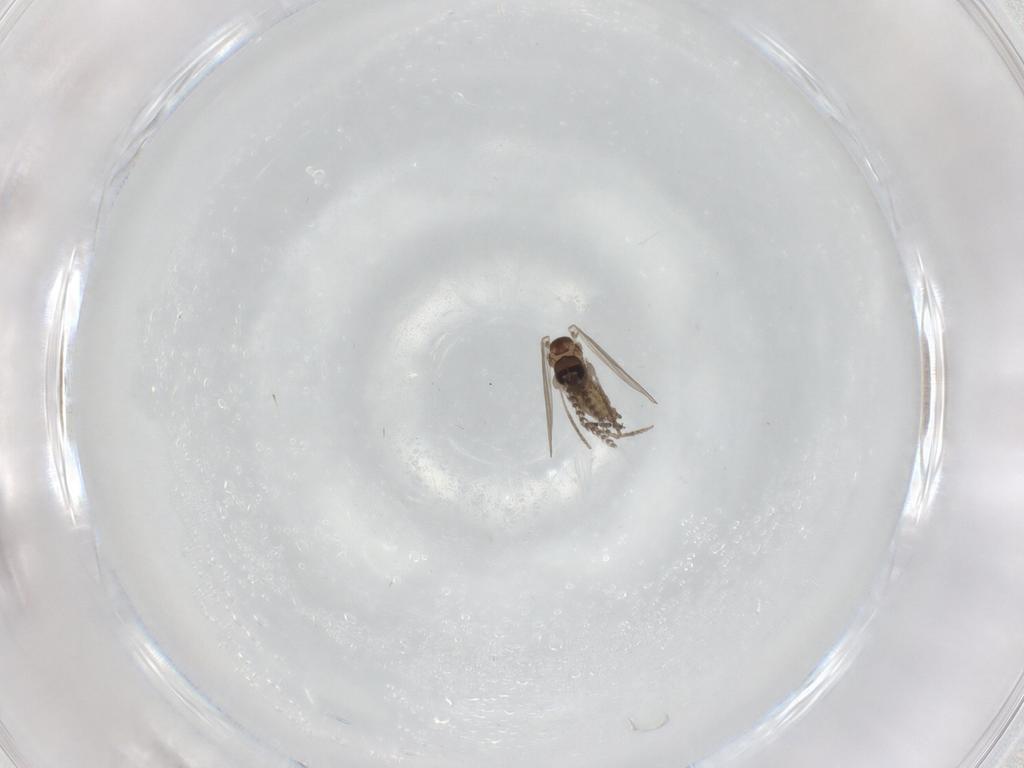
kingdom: Animalia
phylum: Arthropoda
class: Insecta
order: Diptera
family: Psychodidae
